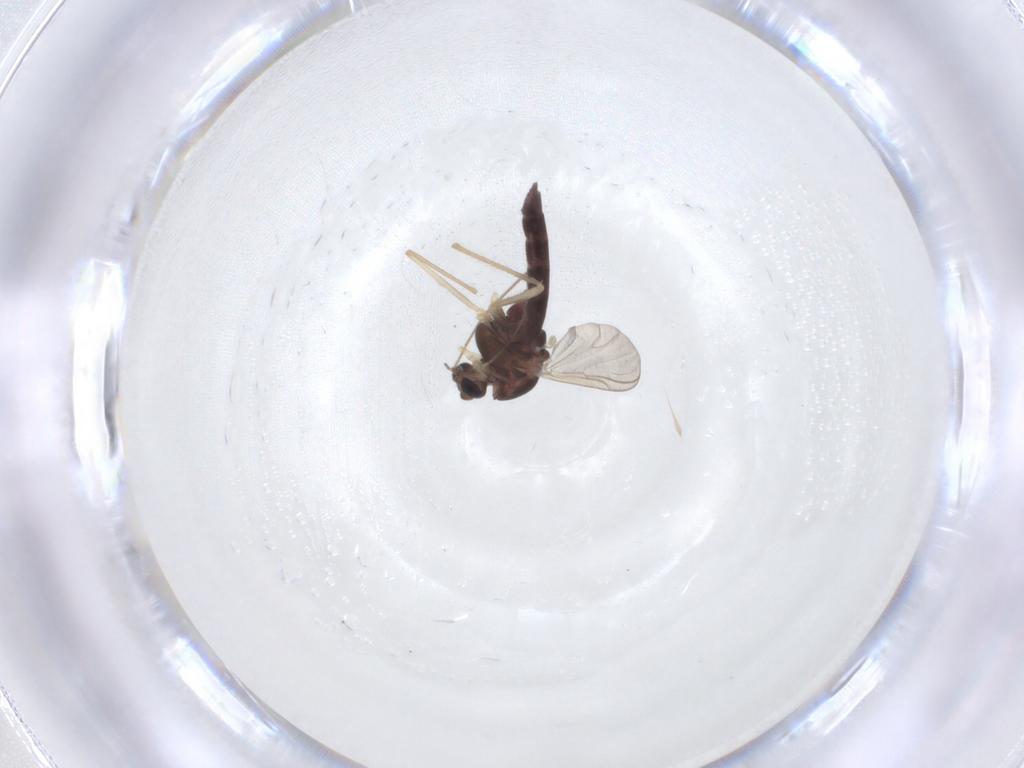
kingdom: Animalia
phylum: Arthropoda
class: Insecta
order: Diptera
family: Chironomidae
